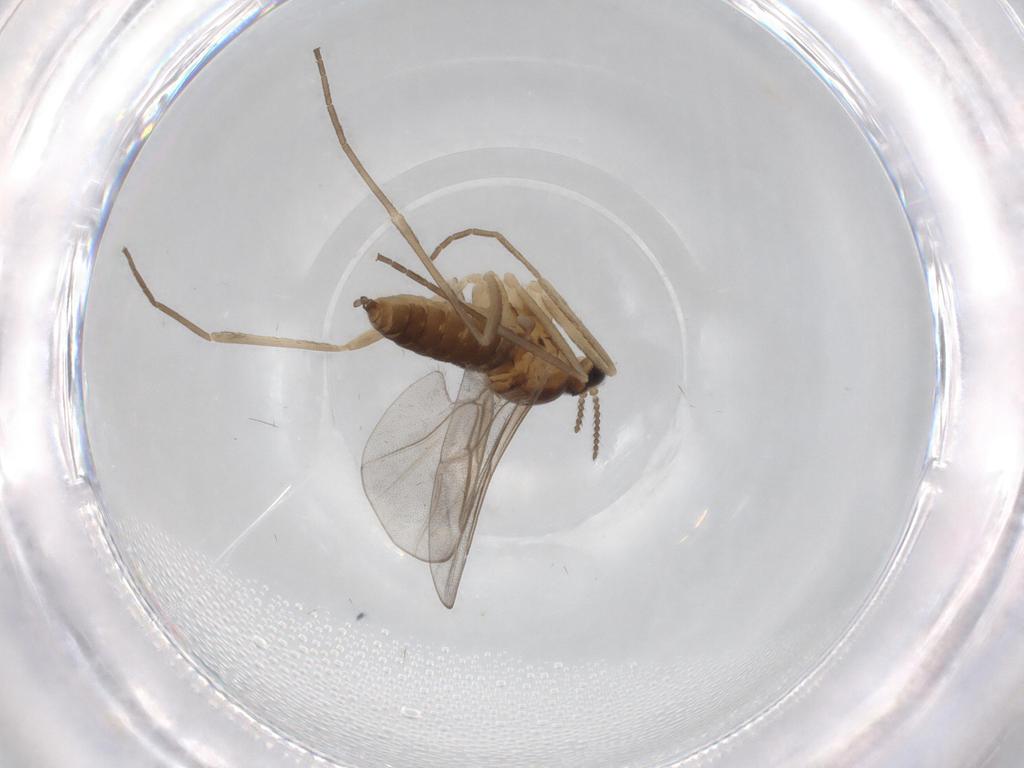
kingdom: Animalia
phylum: Arthropoda
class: Insecta
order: Diptera
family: Cecidomyiidae
